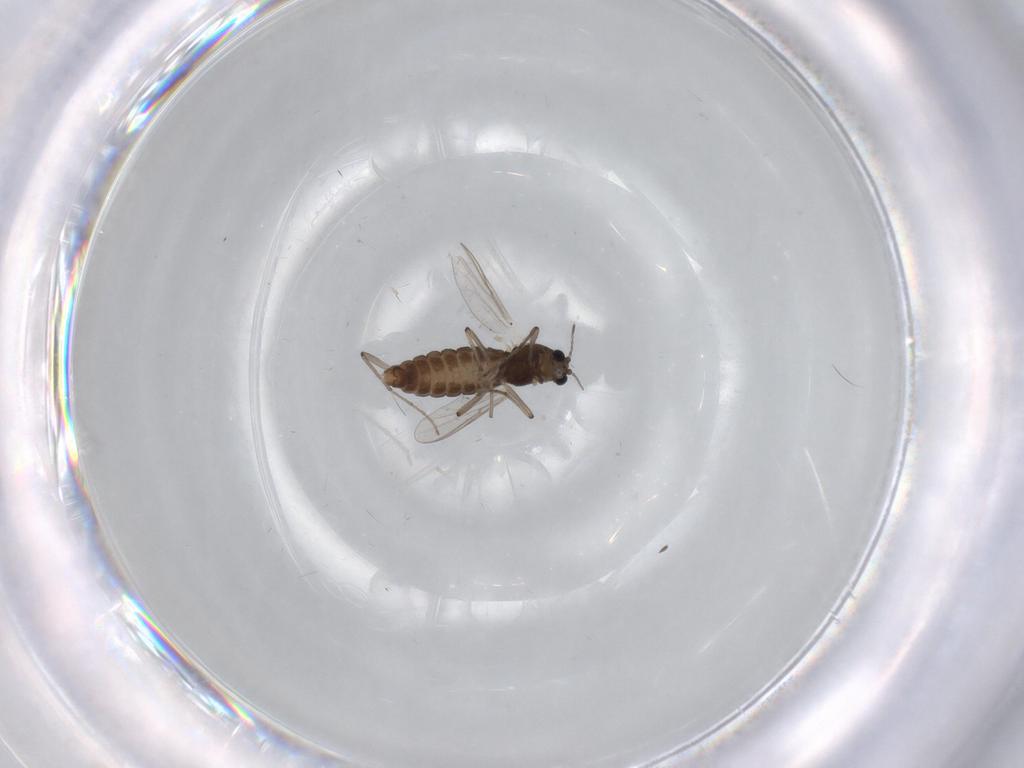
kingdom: Animalia
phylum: Arthropoda
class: Insecta
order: Diptera
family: Chironomidae
